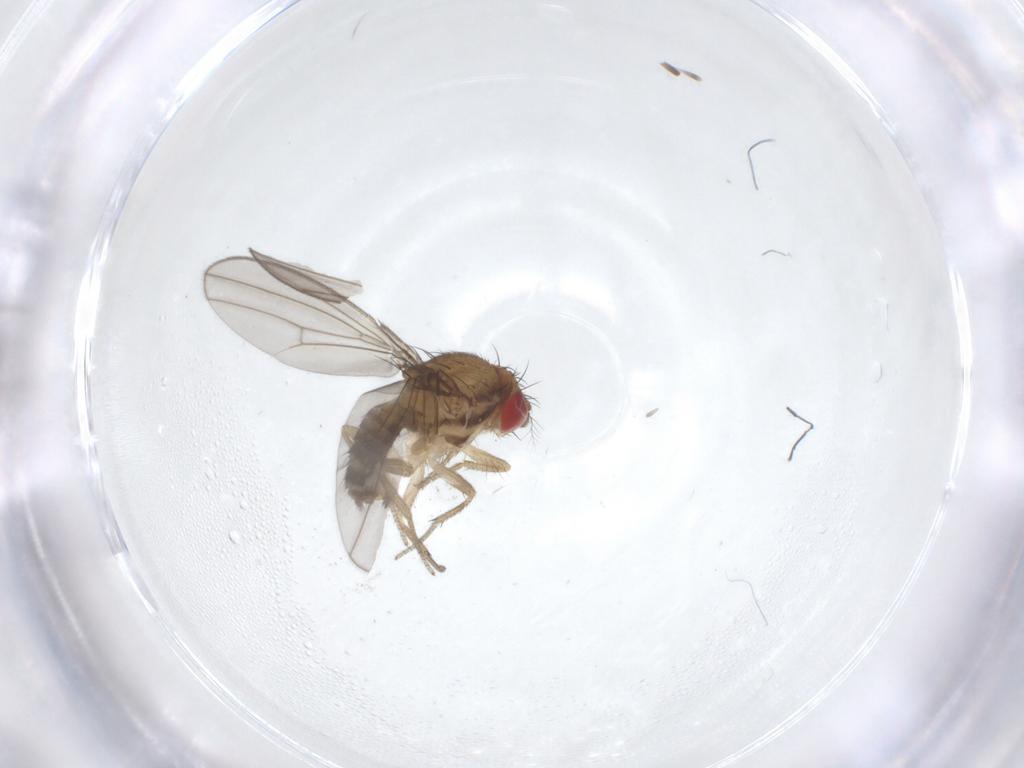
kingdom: Animalia
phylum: Arthropoda
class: Insecta
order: Diptera
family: Drosophilidae
